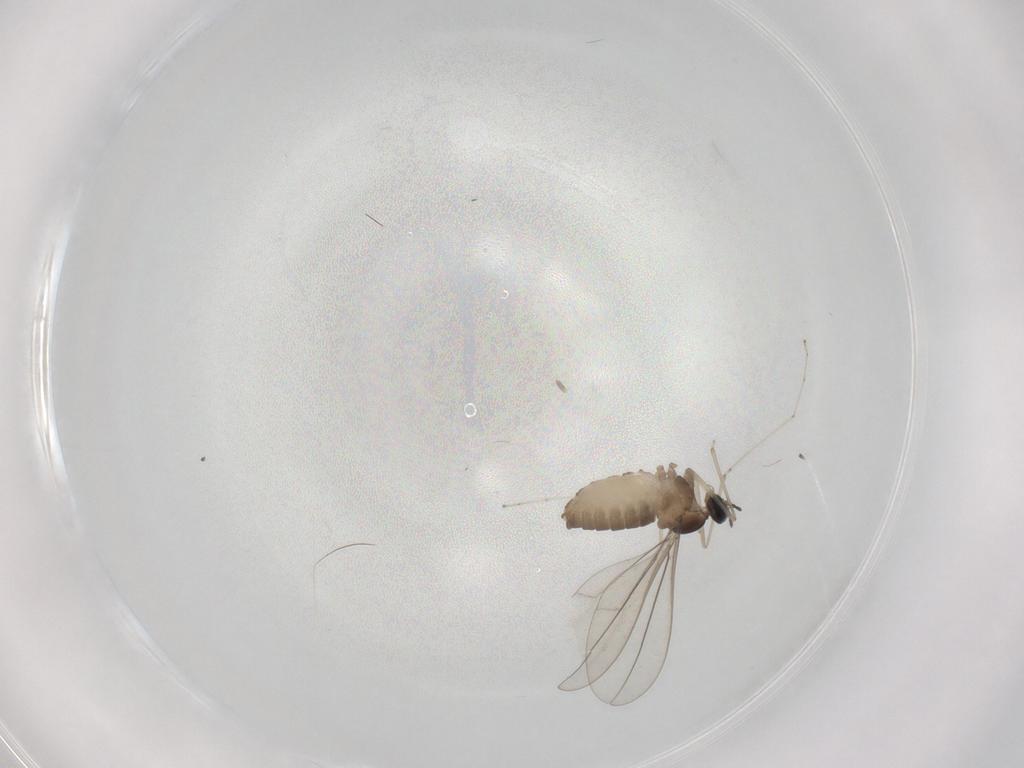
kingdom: Animalia
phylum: Arthropoda
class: Insecta
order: Diptera
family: Cecidomyiidae
